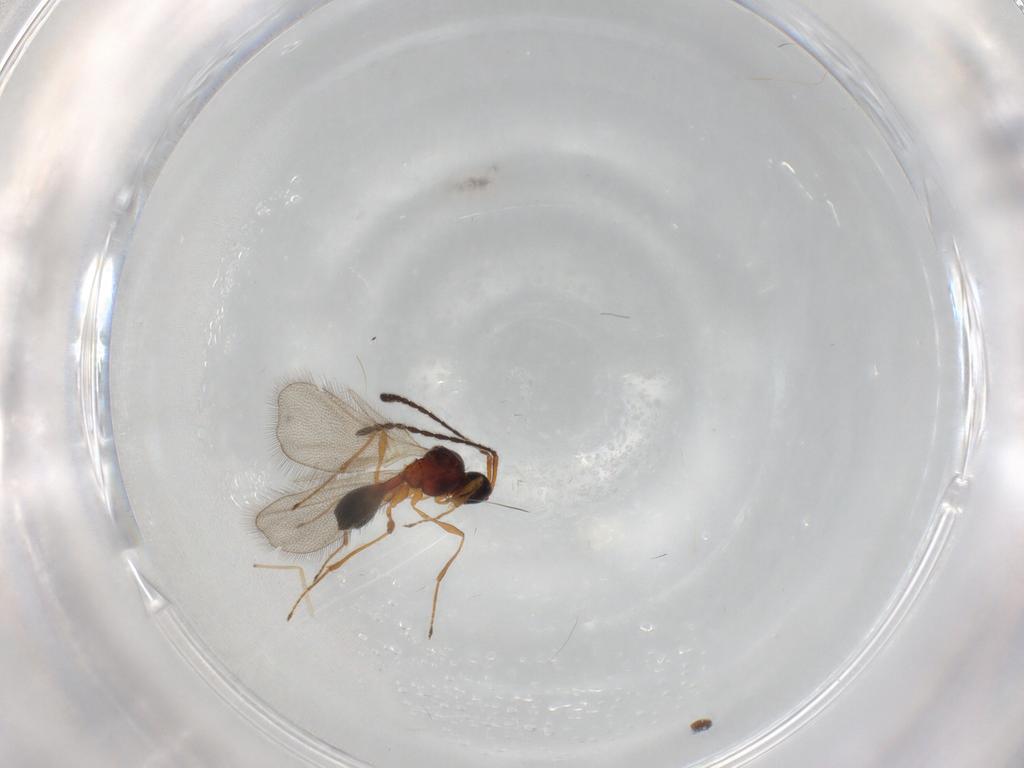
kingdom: Animalia
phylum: Arthropoda
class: Insecta
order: Hymenoptera
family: Diapriidae
